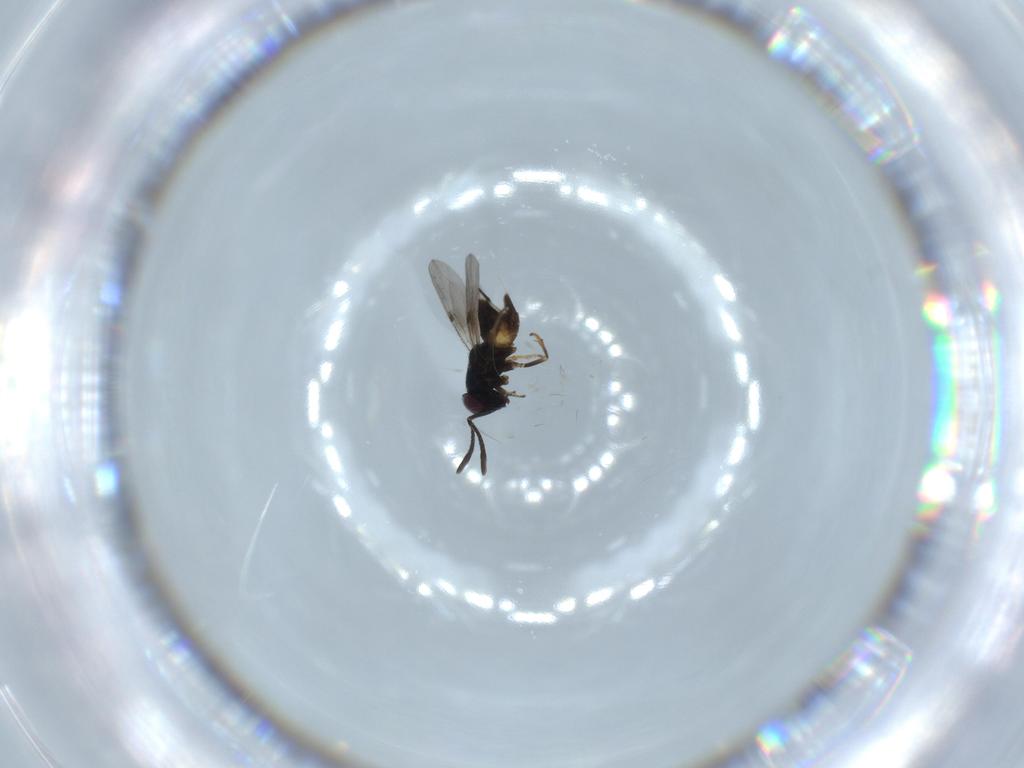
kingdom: Animalia
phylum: Arthropoda
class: Insecta
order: Hymenoptera
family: Encyrtidae
